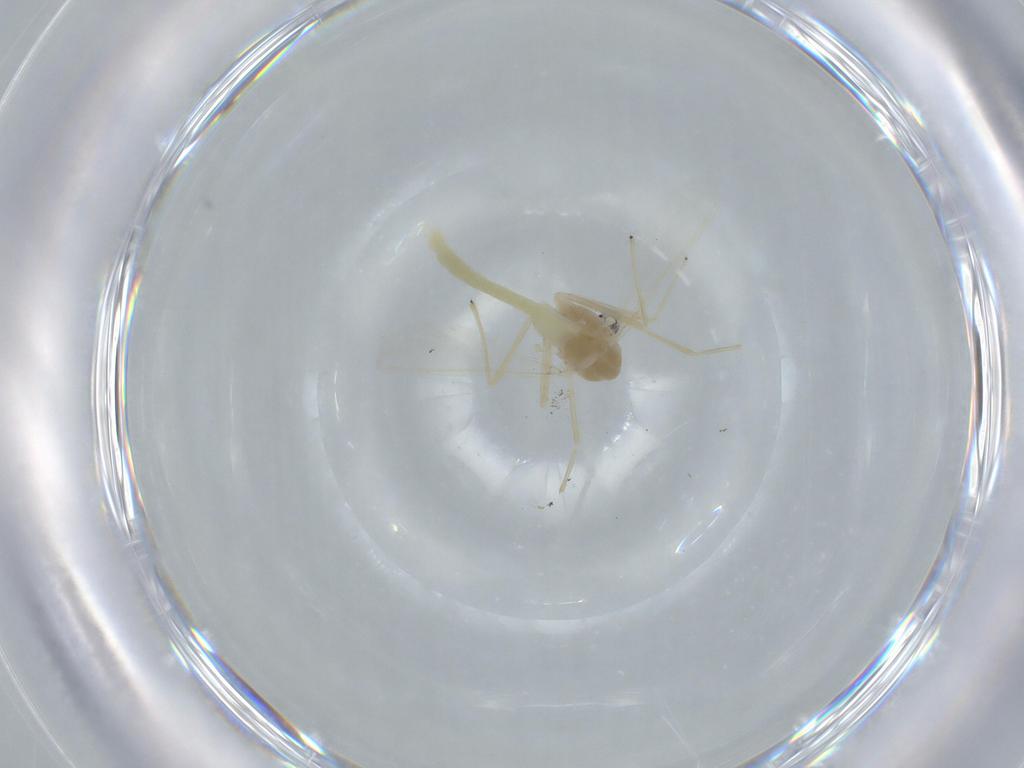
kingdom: Animalia
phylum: Arthropoda
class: Insecta
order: Diptera
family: Chironomidae
